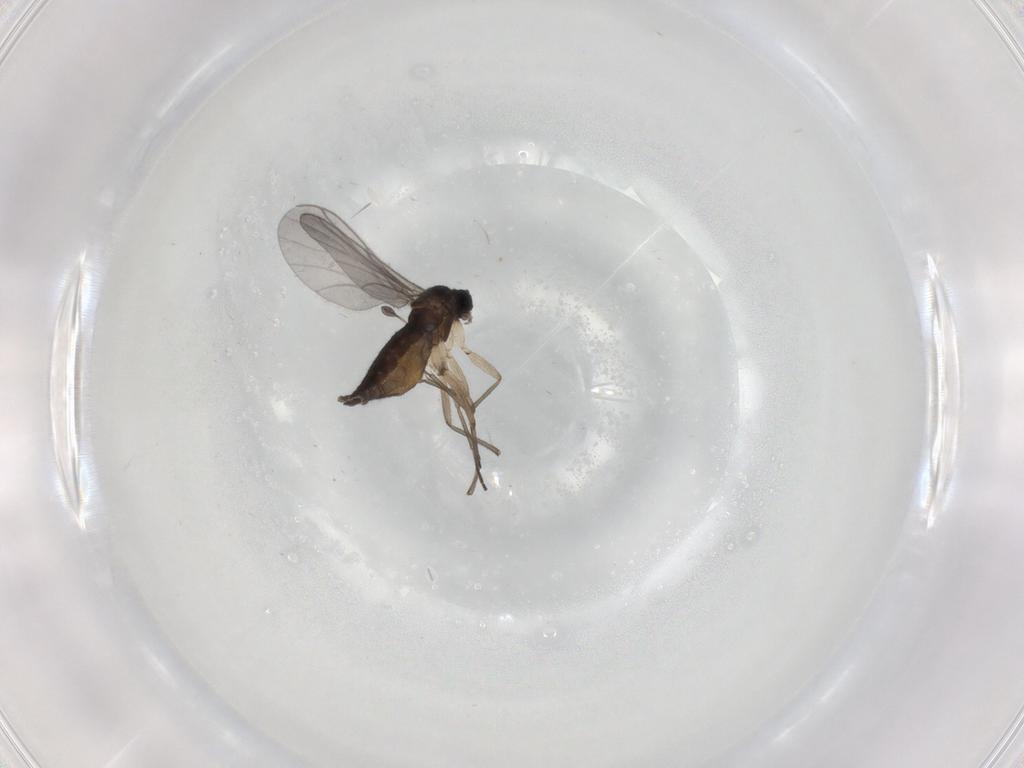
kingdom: Animalia
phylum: Arthropoda
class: Insecta
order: Diptera
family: Sciaridae
